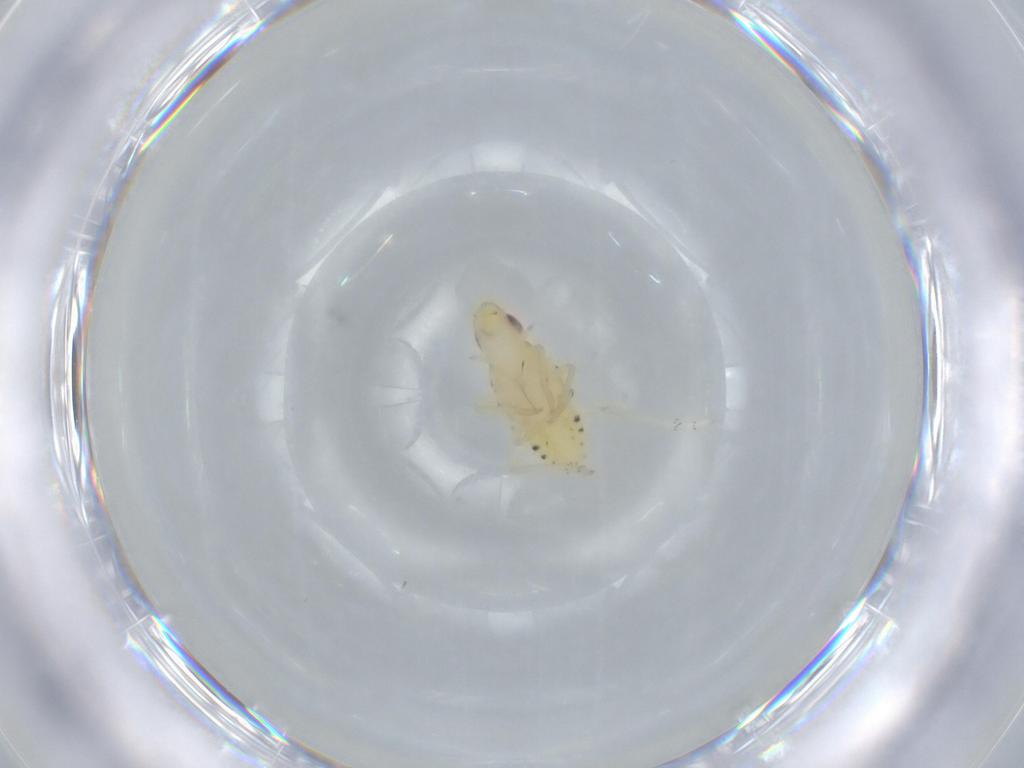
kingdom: Animalia
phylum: Arthropoda
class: Insecta
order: Hemiptera
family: Tropiduchidae
